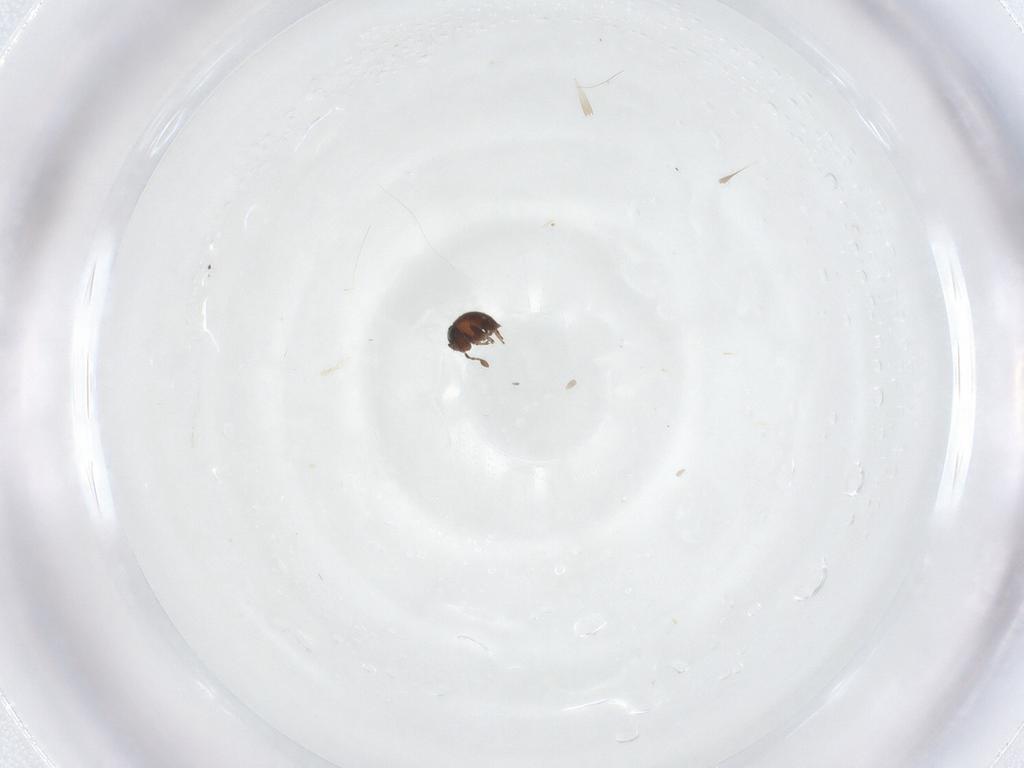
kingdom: Animalia
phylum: Arthropoda
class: Insecta
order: Hymenoptera
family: Scelionidae
